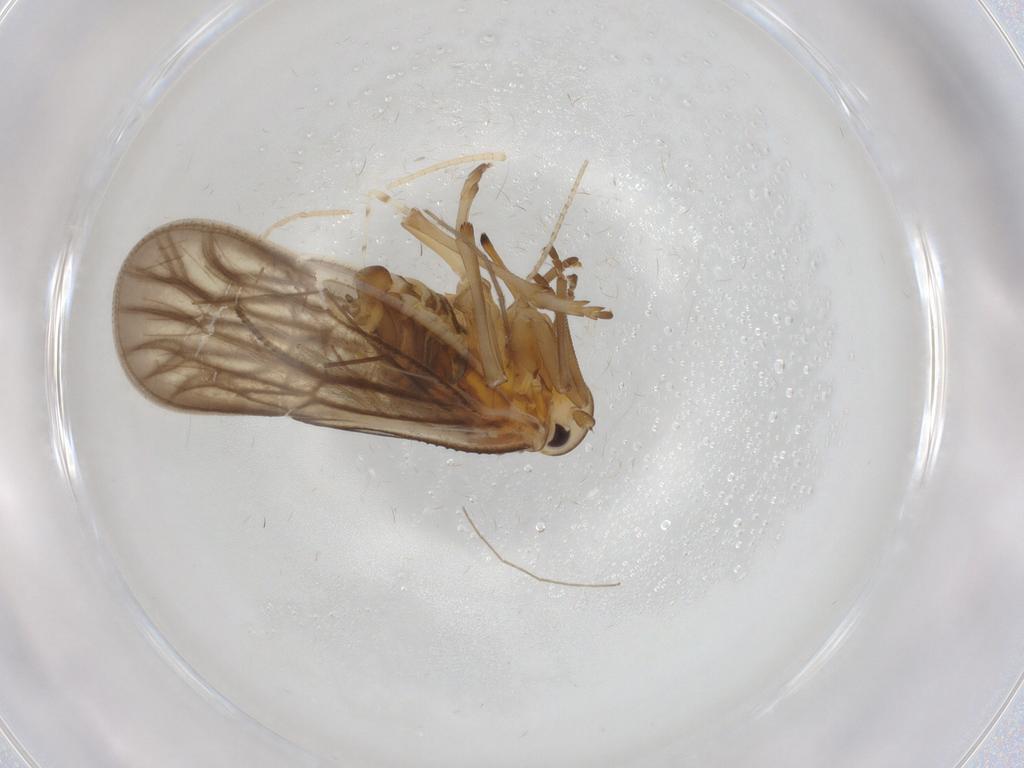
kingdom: Animalia
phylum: Arthropoda
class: Insecta
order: Hemiptera
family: Meenoplidae
